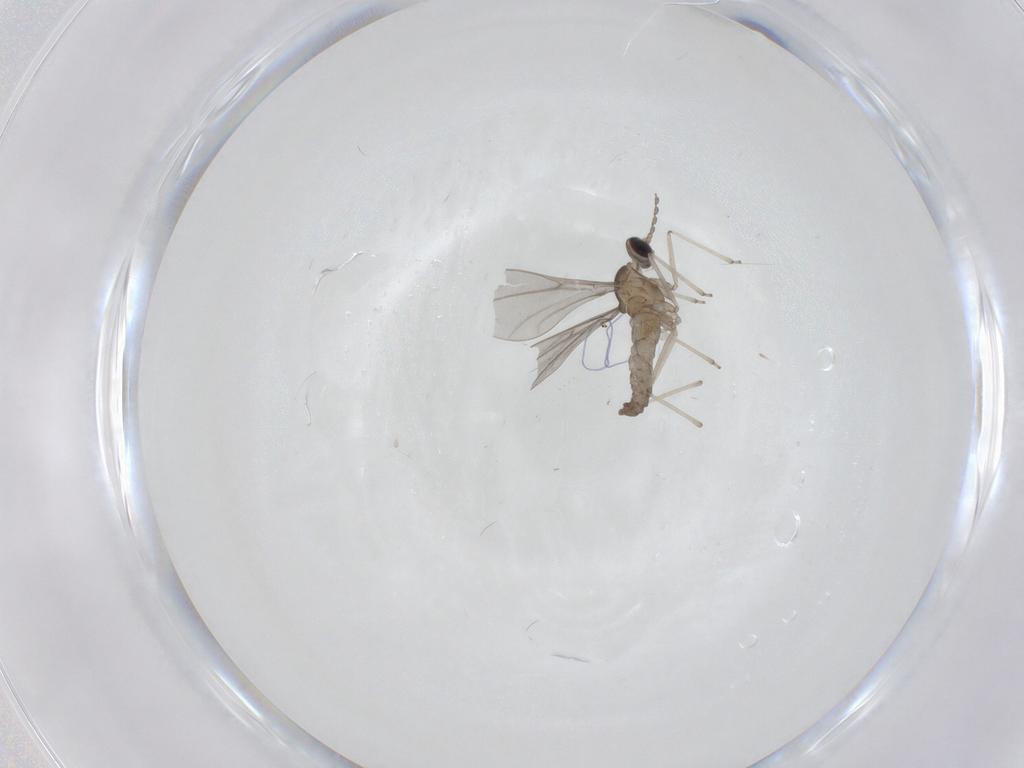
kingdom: Animalia
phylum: Arthropoda
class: Insecta
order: Diptera
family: Cecidomyiidae
